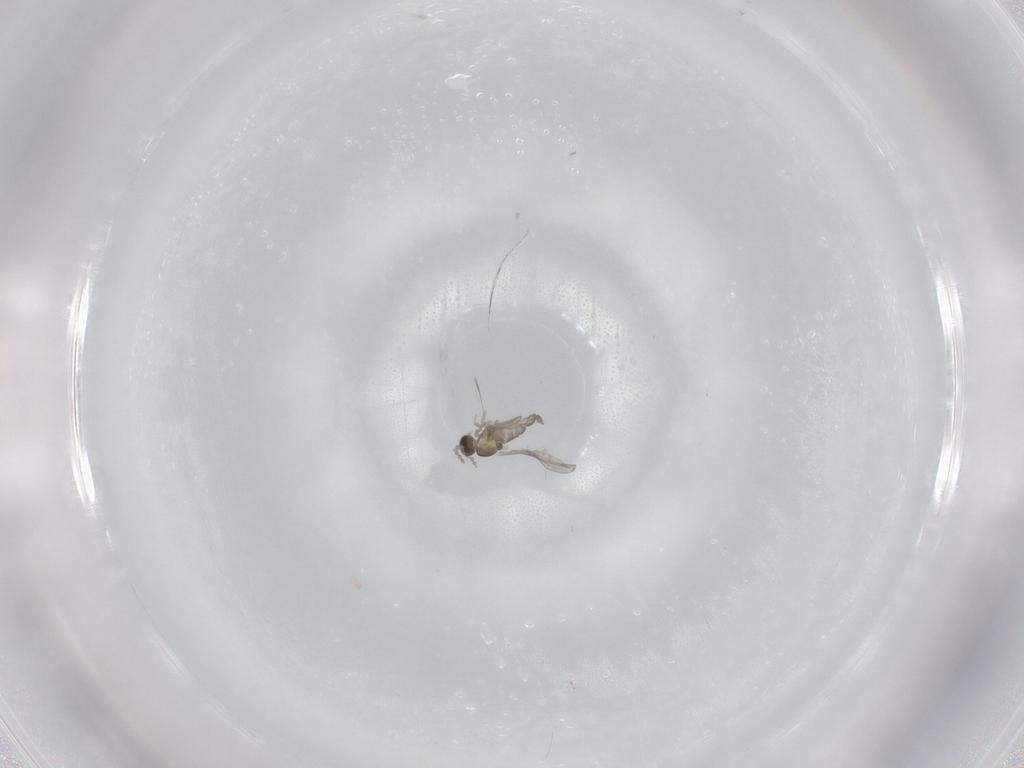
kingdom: Animalia
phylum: Arthropoda
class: Insecta
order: Diptera
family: Cecidomyiidae
